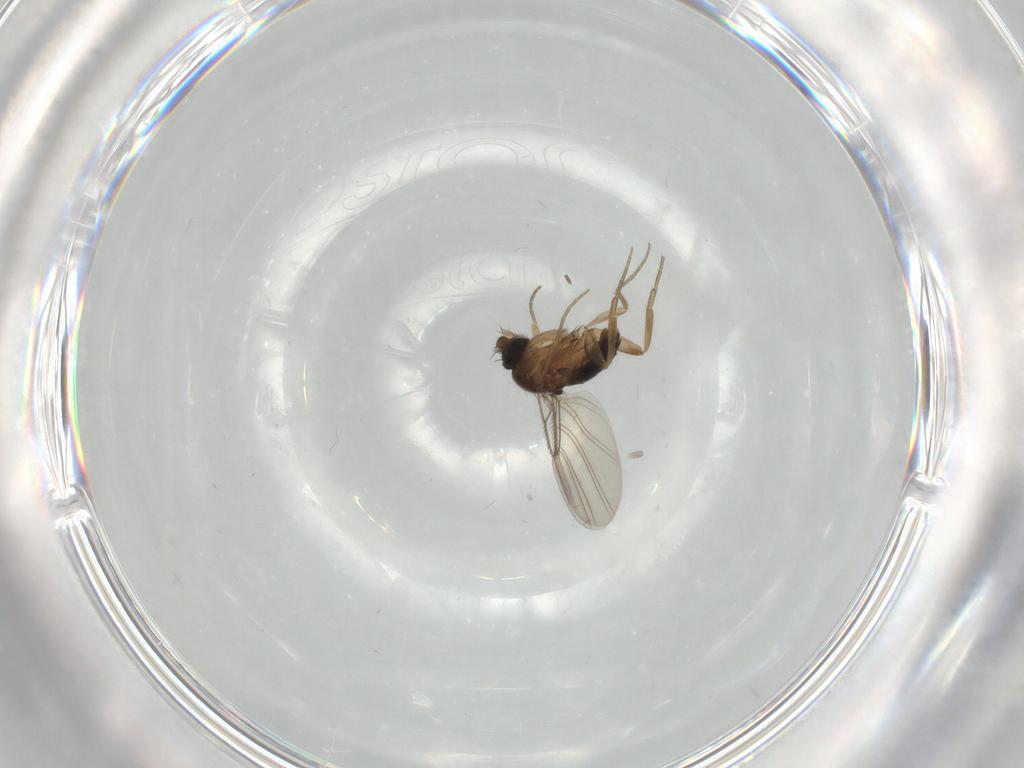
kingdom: Animalia
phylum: Arthropoda
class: Insecta
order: Diptera
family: Phoridae
